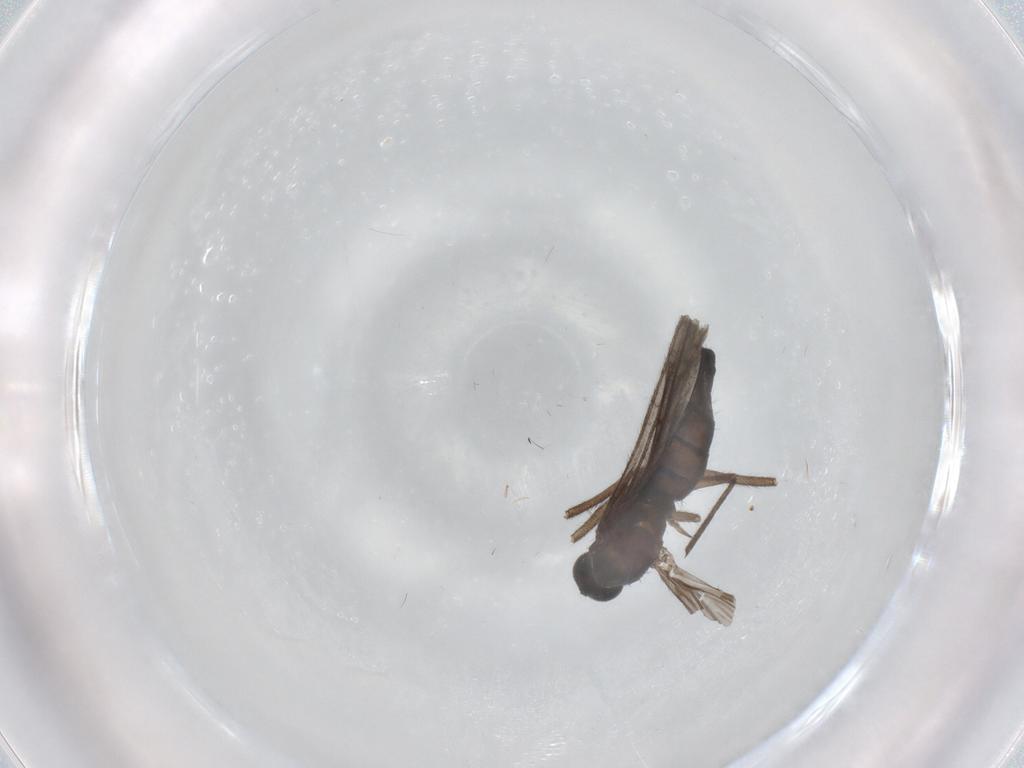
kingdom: Animalia
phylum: Arthropoda
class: Insecta
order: Diptera
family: Sciaridae
